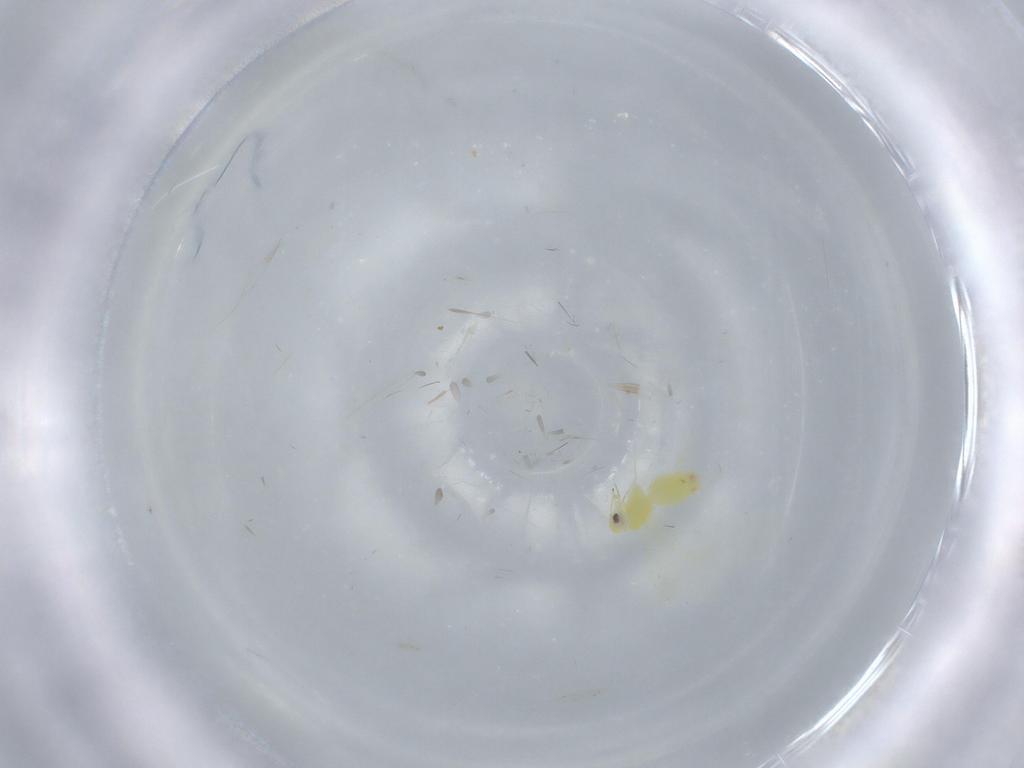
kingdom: Animalia
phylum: Arthropoda
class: Insecta
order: Hemiptera
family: Aleyrodidae
